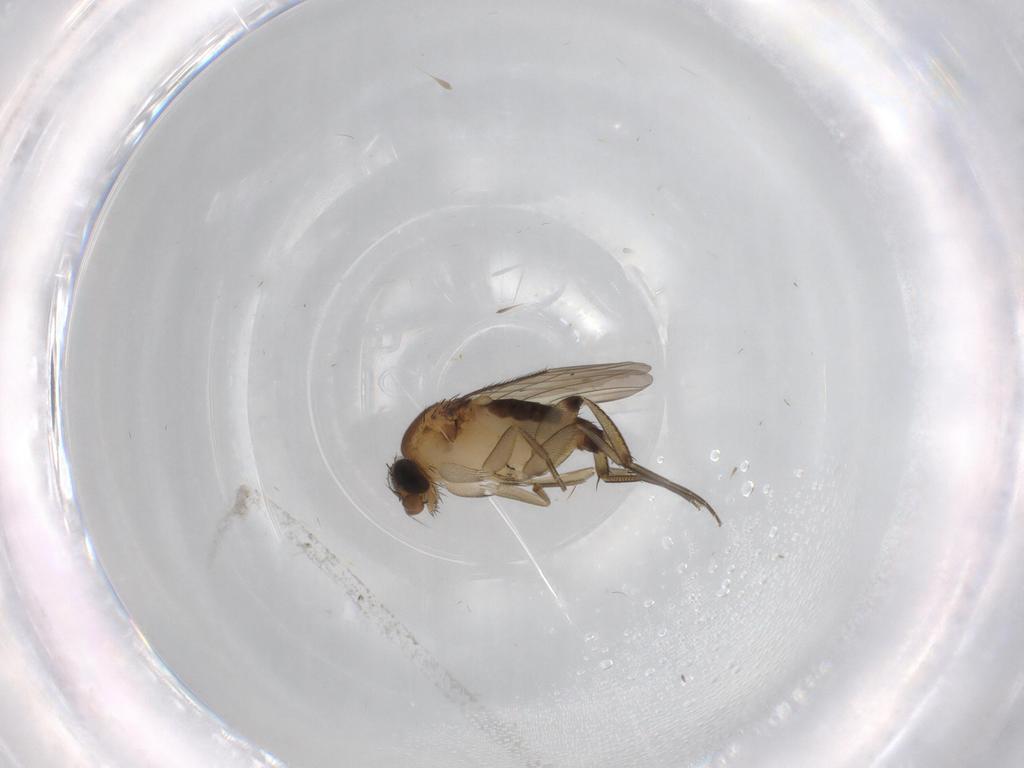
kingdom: Animalia
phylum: Arthropoda
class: Insecta
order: Diptera
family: Phoridae
